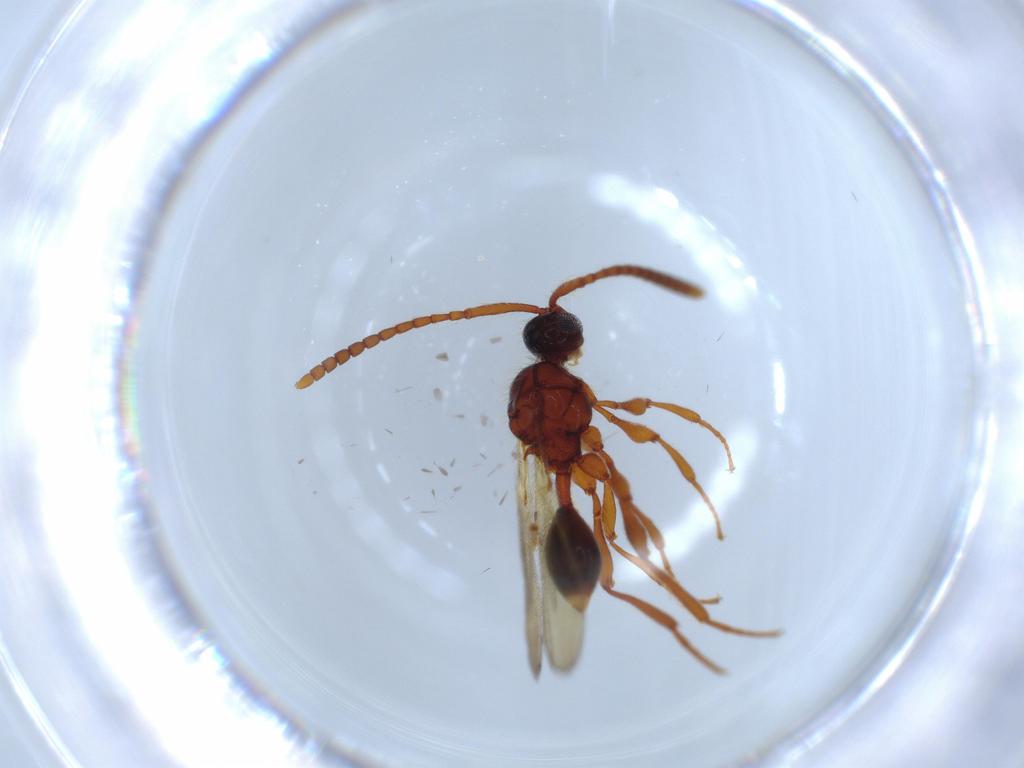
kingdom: Animalia
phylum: Arthropoda
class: Insecta
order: Hymenoptera
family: Diapriidae
